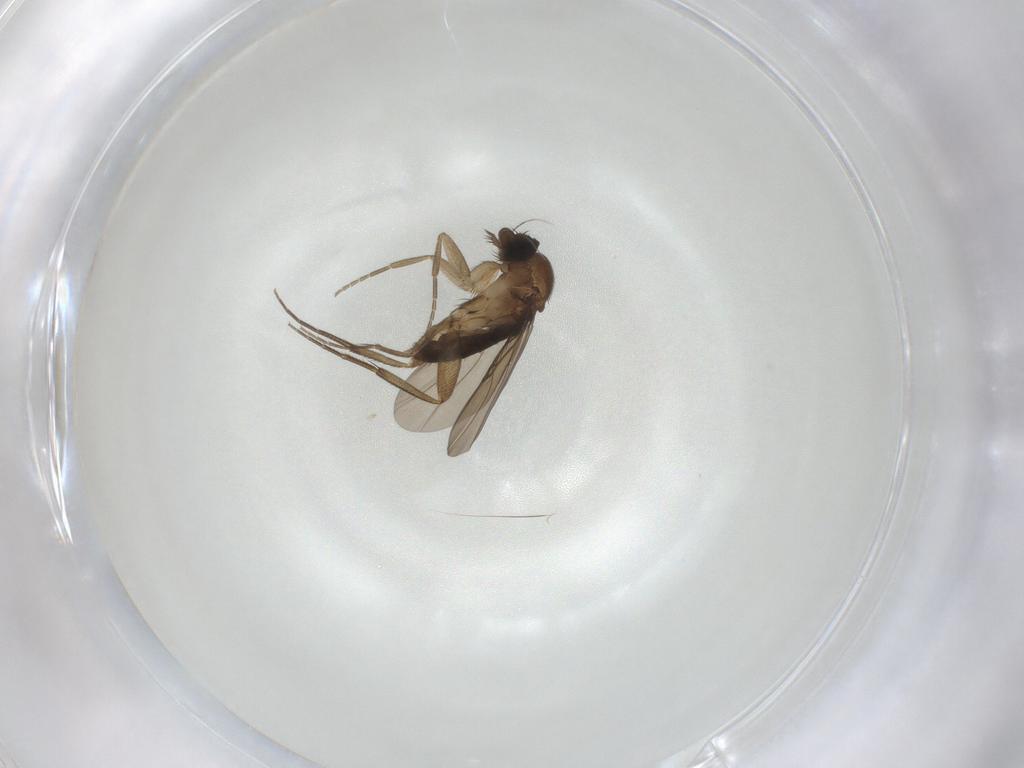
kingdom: Animalia
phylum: Arthropoda
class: Insecta
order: Diptera
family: Phoridae
